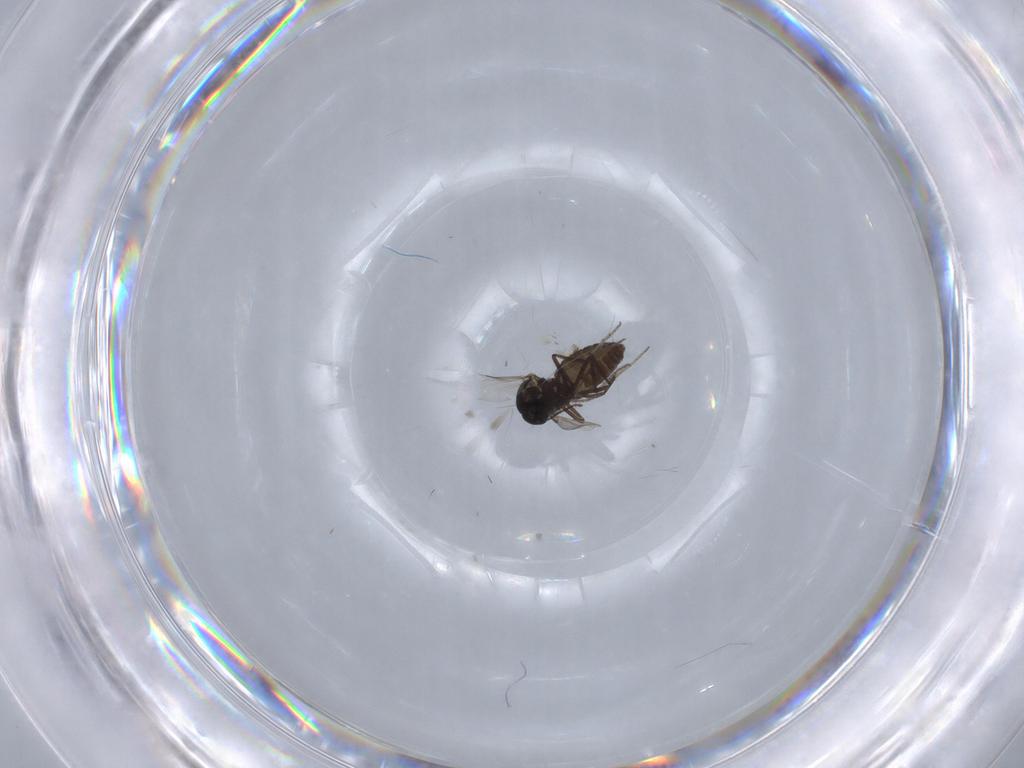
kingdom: Animalia
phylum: Arthropoda
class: Insecta
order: Diptera
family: Ceratopogonidae
